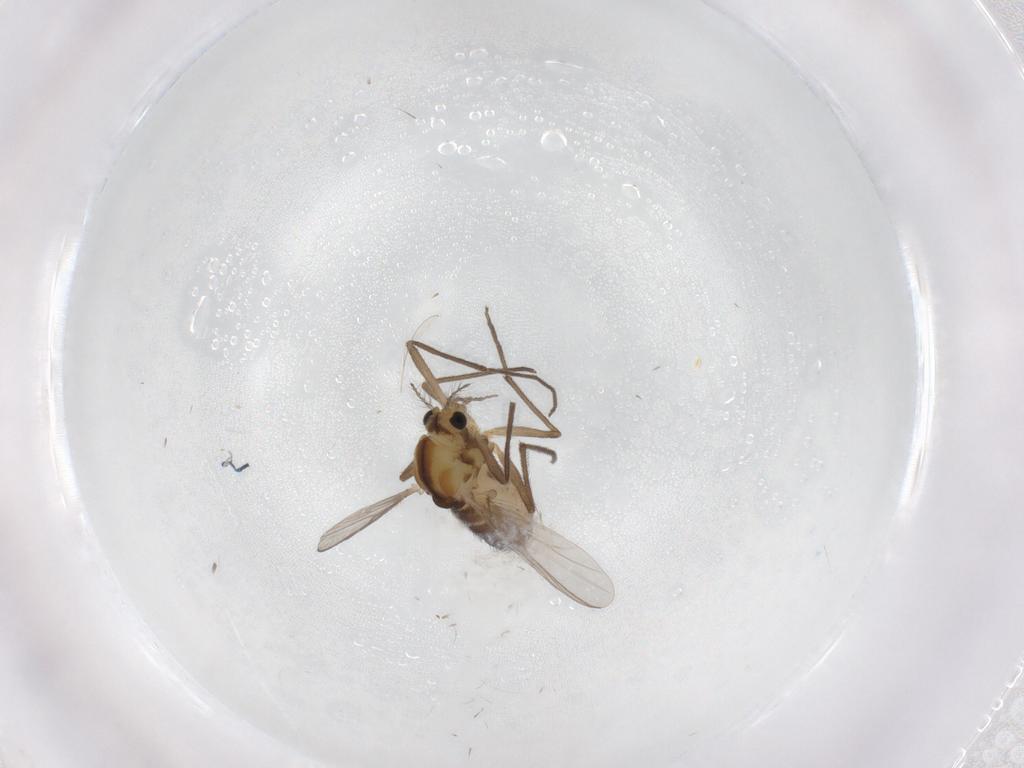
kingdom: Animalia
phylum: Arthropoda
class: Insecta
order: Diptera
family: Chironomidae
